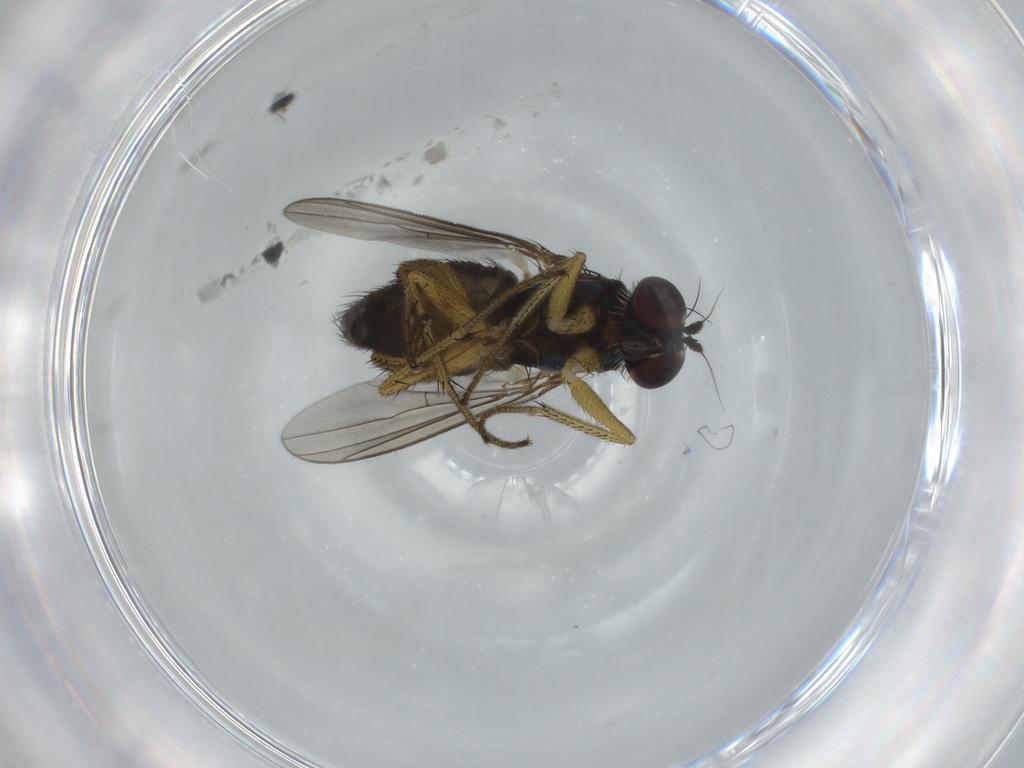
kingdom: Animalia
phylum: Arthropoda
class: Insecta
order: Diptera
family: Dolichopodidae
